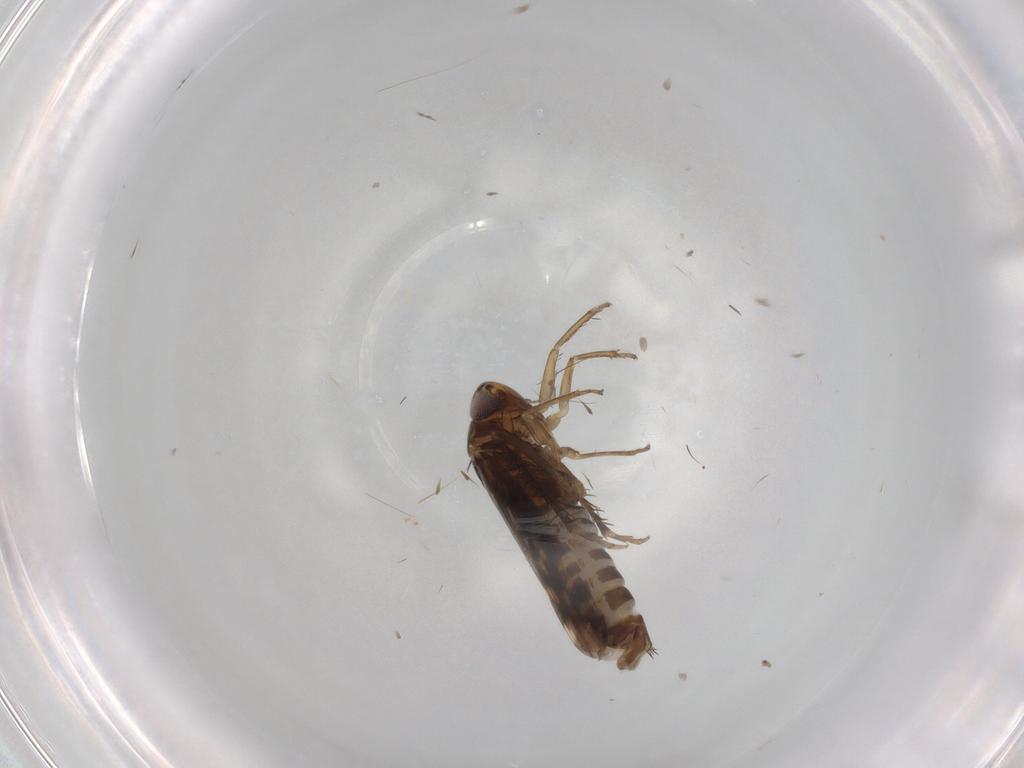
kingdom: Animalia
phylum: Arthropoda
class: Insecta
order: Hemiptera
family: Cicadellidae
